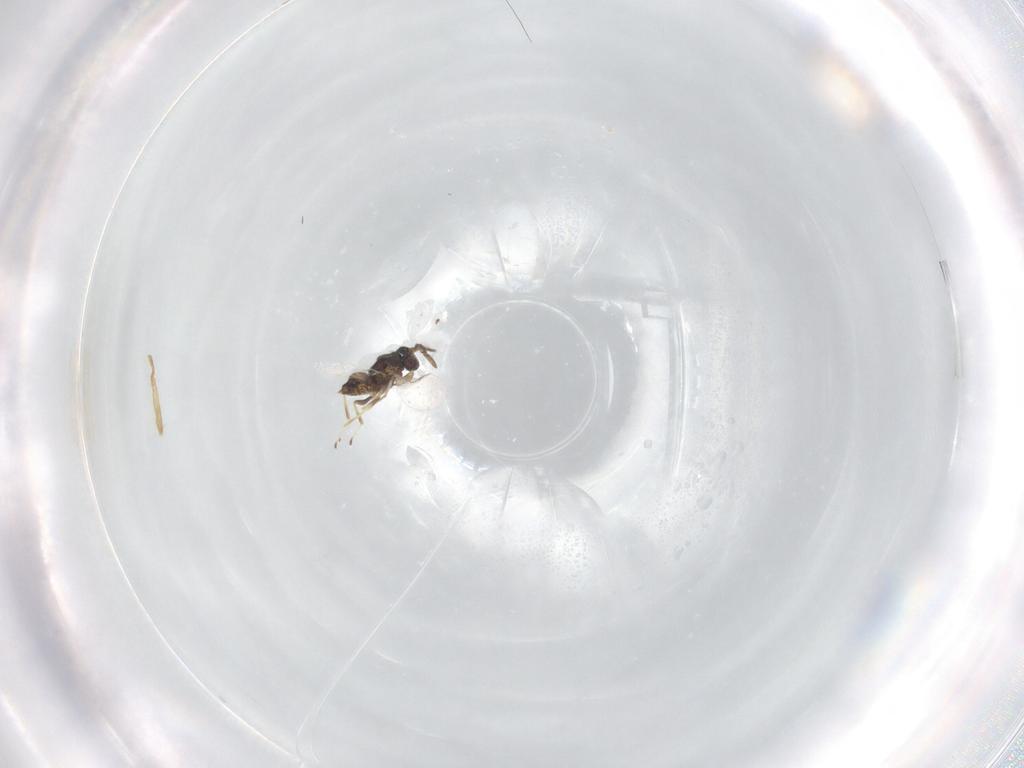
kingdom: Animalia
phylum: Arthropoda
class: Insecta
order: Hymenoptera
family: Encyrtidae
